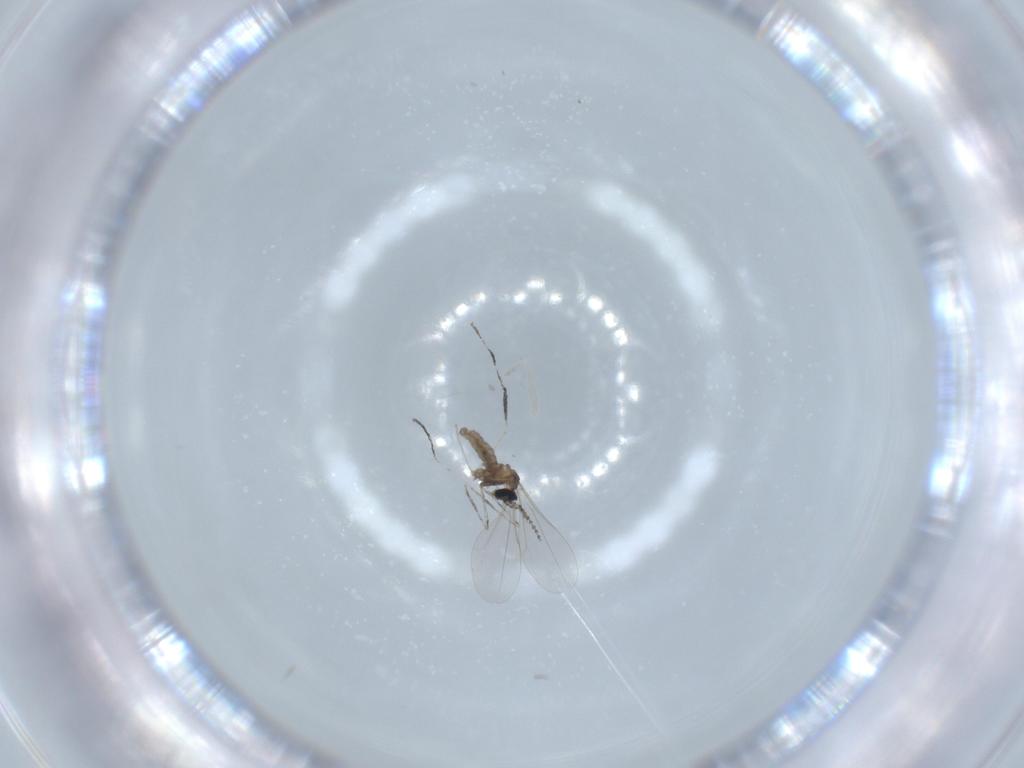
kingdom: Animalia
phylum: Arthropoda
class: Insecta
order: Diptera
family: Cecidomyiidae
